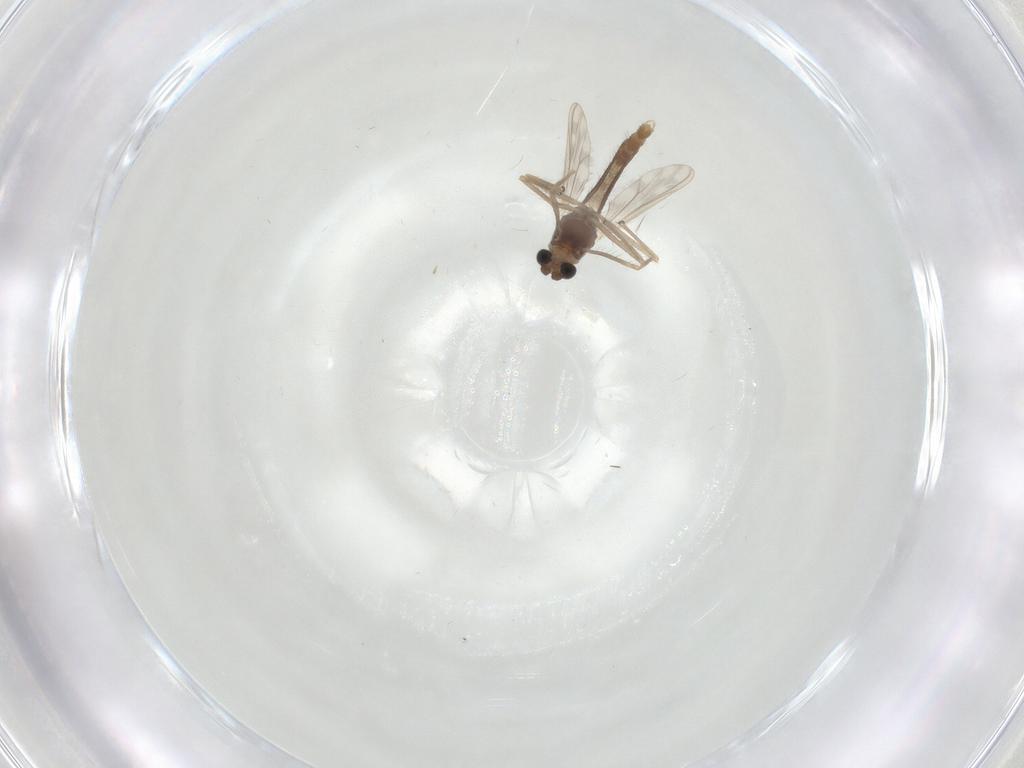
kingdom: Animalia
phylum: Arthropoda
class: Insecta
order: Diptera
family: Chironomidae
